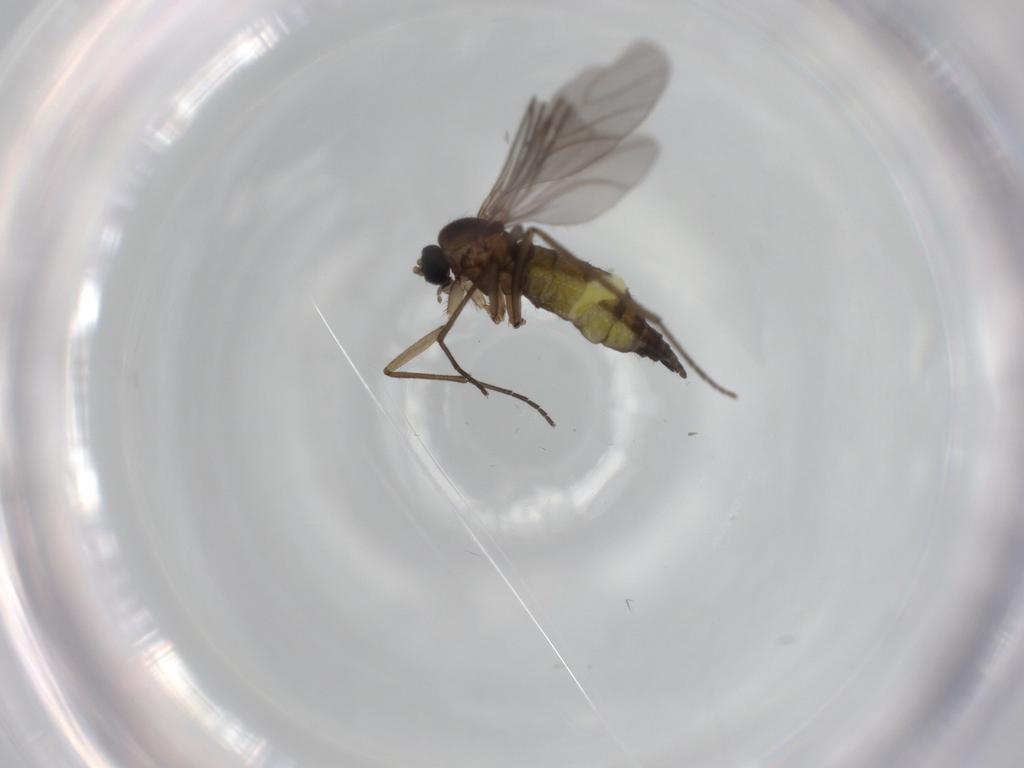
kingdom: Animalia
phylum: Arthropoda
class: Insecta
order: Diptera
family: Sciaridae
